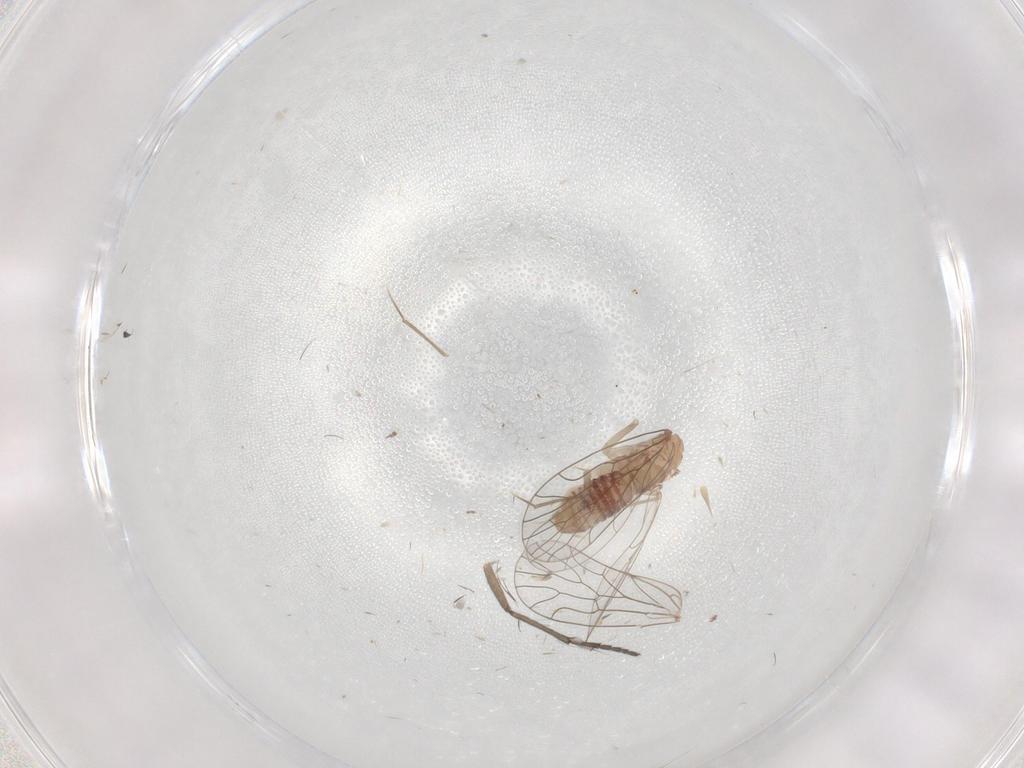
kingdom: Animalia
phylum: Arthropoda
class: Insecta
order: Psocodea
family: Amphientomidae
